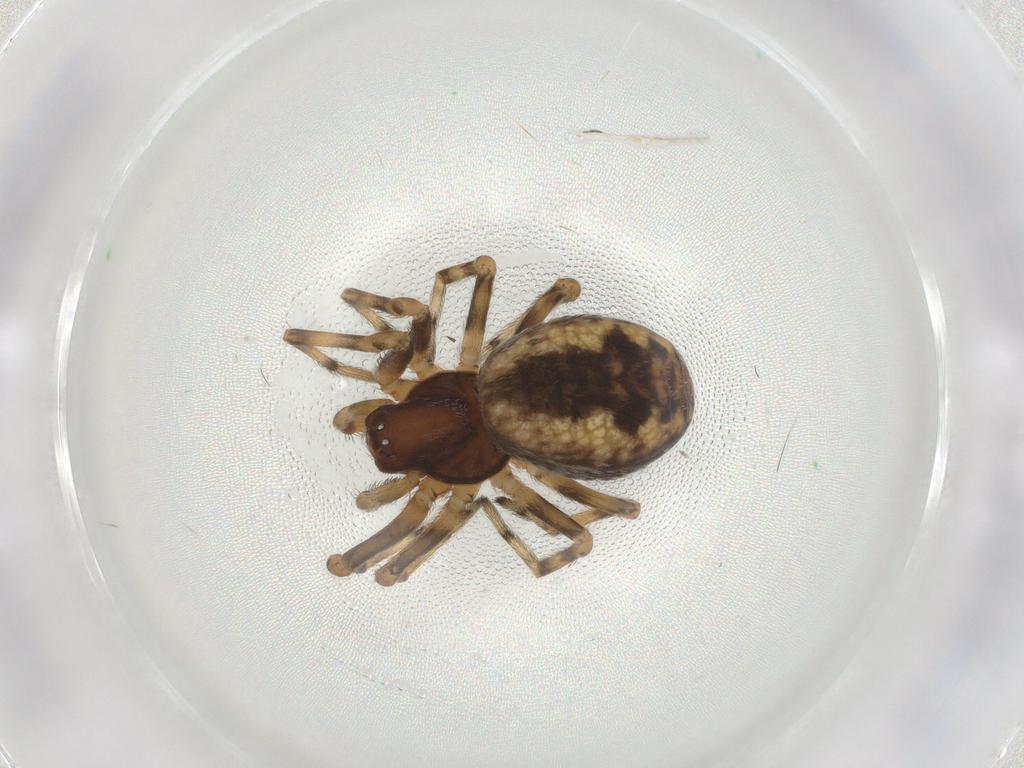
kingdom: Animalia
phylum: Arthropoda
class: Arachnida
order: Araneae
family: Dictynidae
